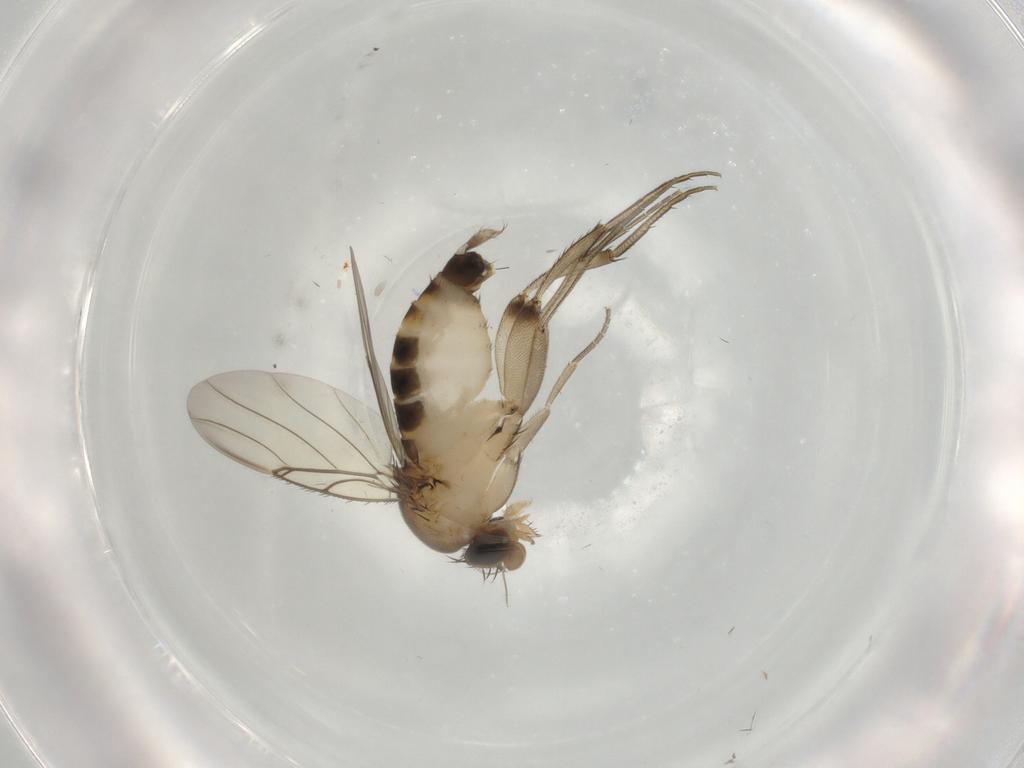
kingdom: Animalia
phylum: Arthropoda
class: Insecta
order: Diptera
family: Phoridae
